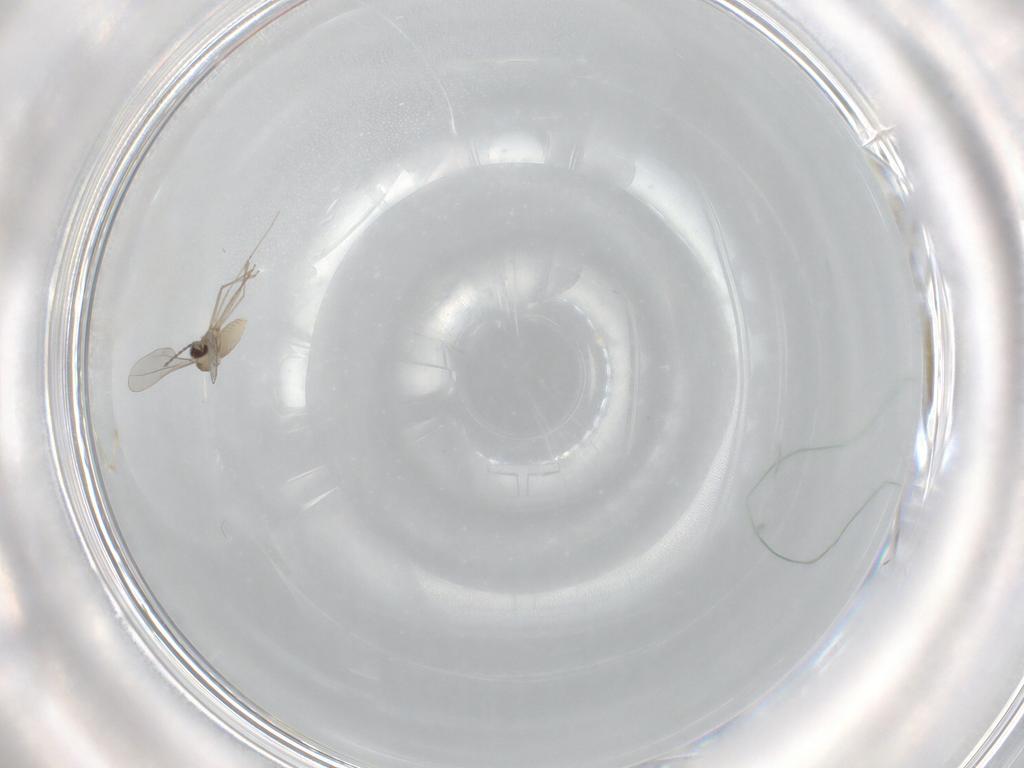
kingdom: Animalia
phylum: Arthropoda
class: Insecta
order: Diptera
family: Cecidomyiidae
